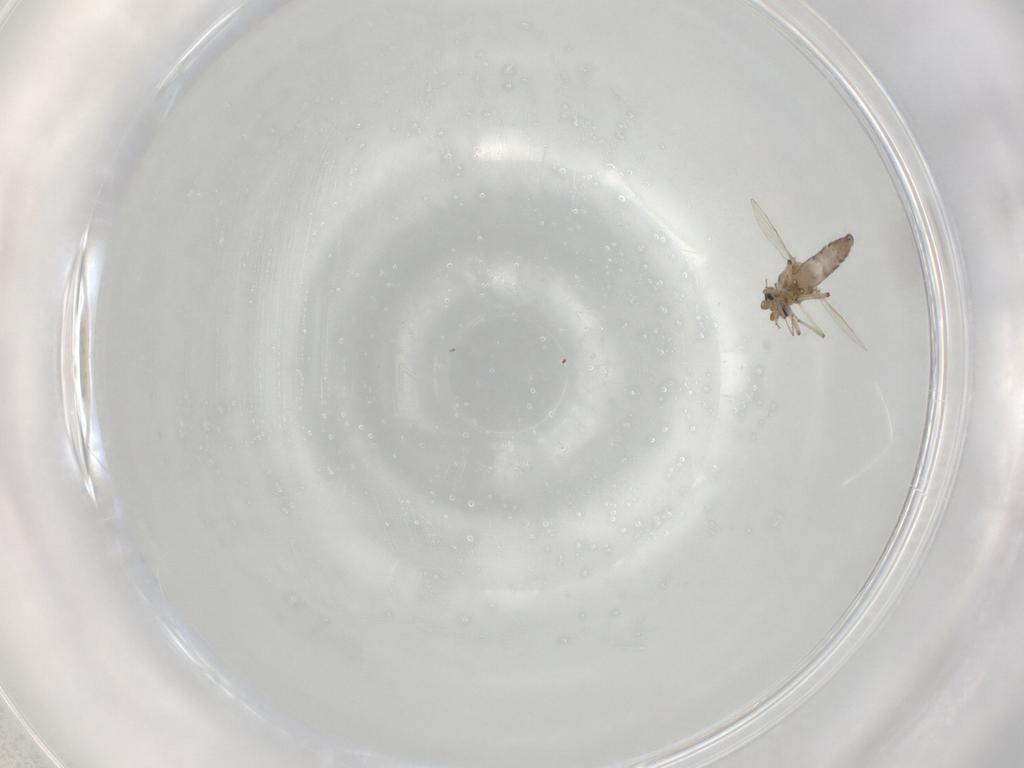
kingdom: Animalia
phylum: Arthropoda
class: Insecta
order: Diptera
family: Ceratopogonidae
